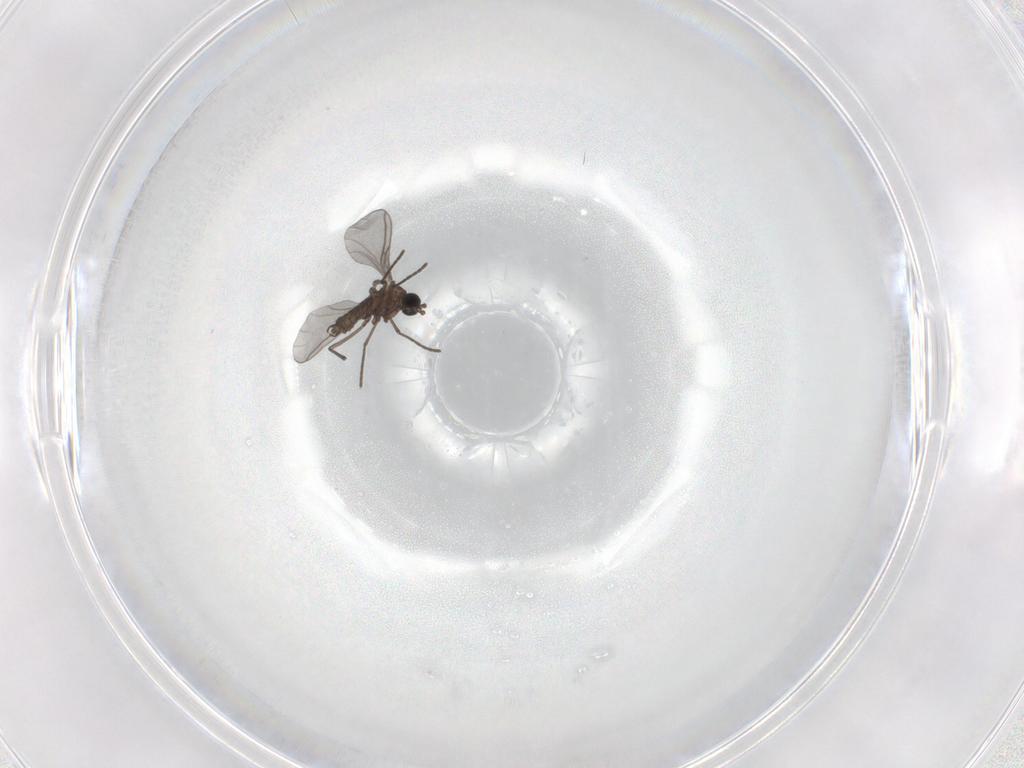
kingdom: Animalia
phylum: Arthropoda
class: Insecta
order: Diptera
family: Sciaridae
